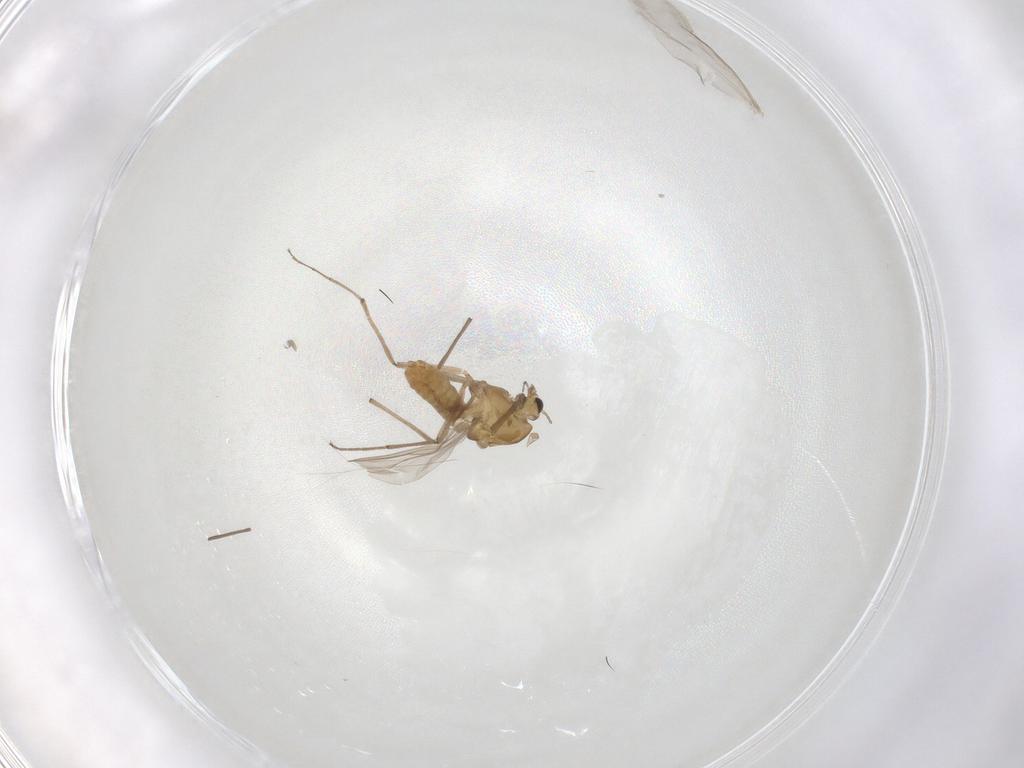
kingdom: Animalia
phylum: Arthropoda
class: Insecta
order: Diptera
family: Chironomidae
